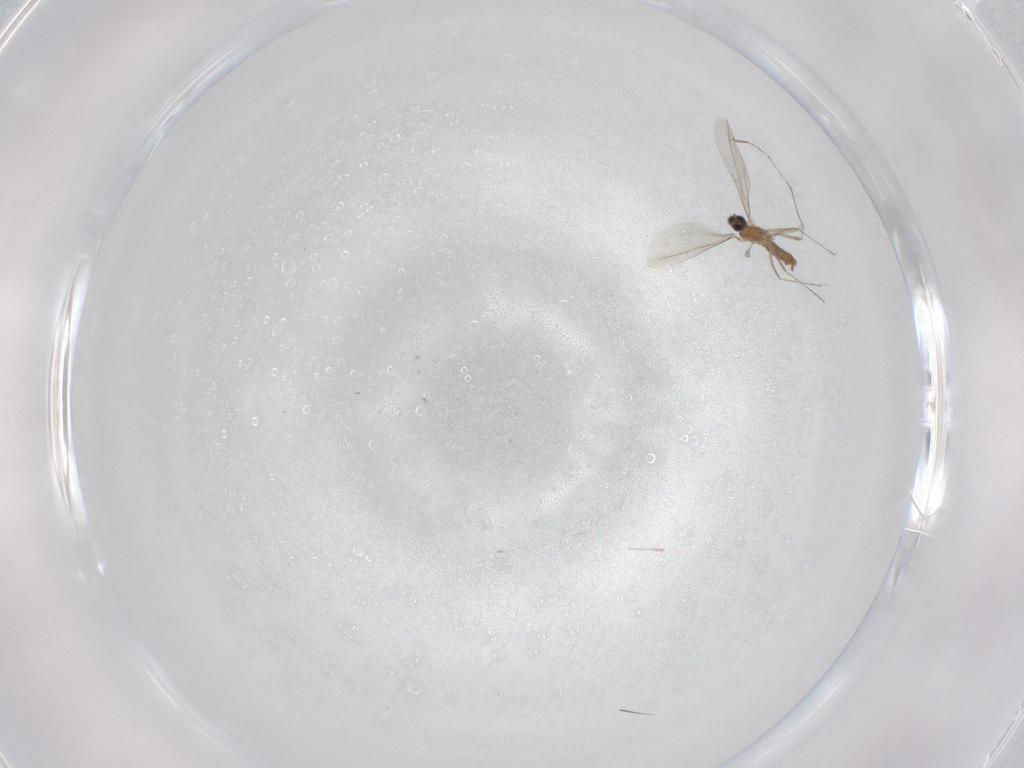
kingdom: Animalia
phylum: Arthropoda
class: Insecta
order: Diptera
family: Cecidomyiidae
